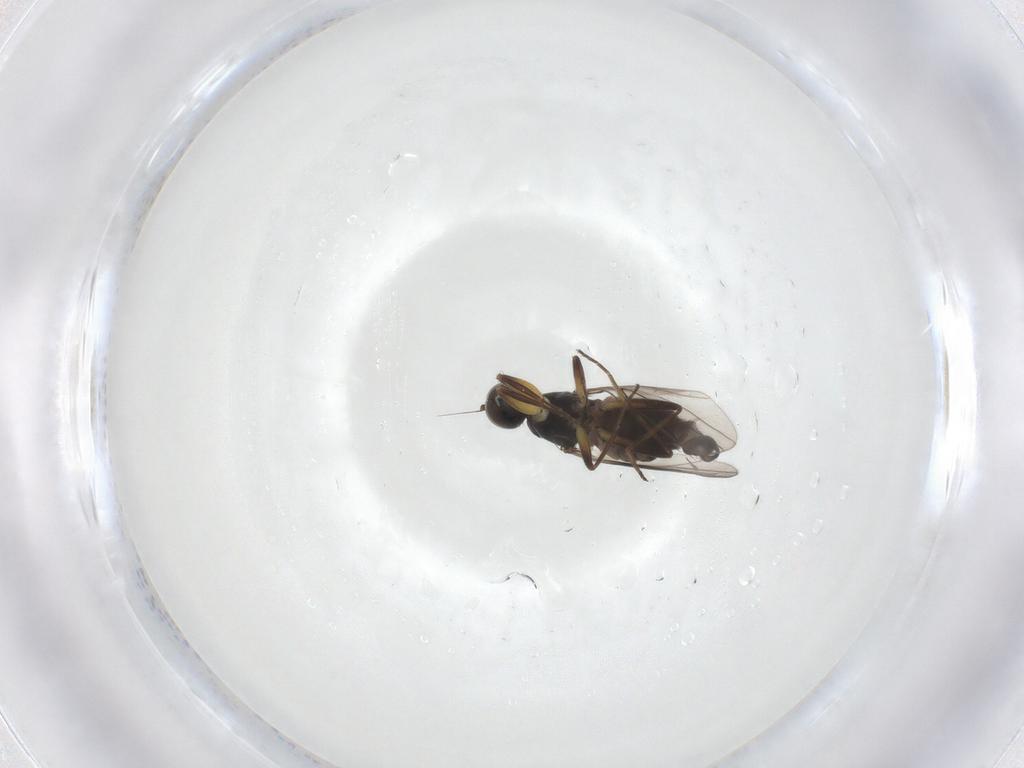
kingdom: Animalia
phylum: Arthropoda
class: Insecta
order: Diptera
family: Hybotidae
